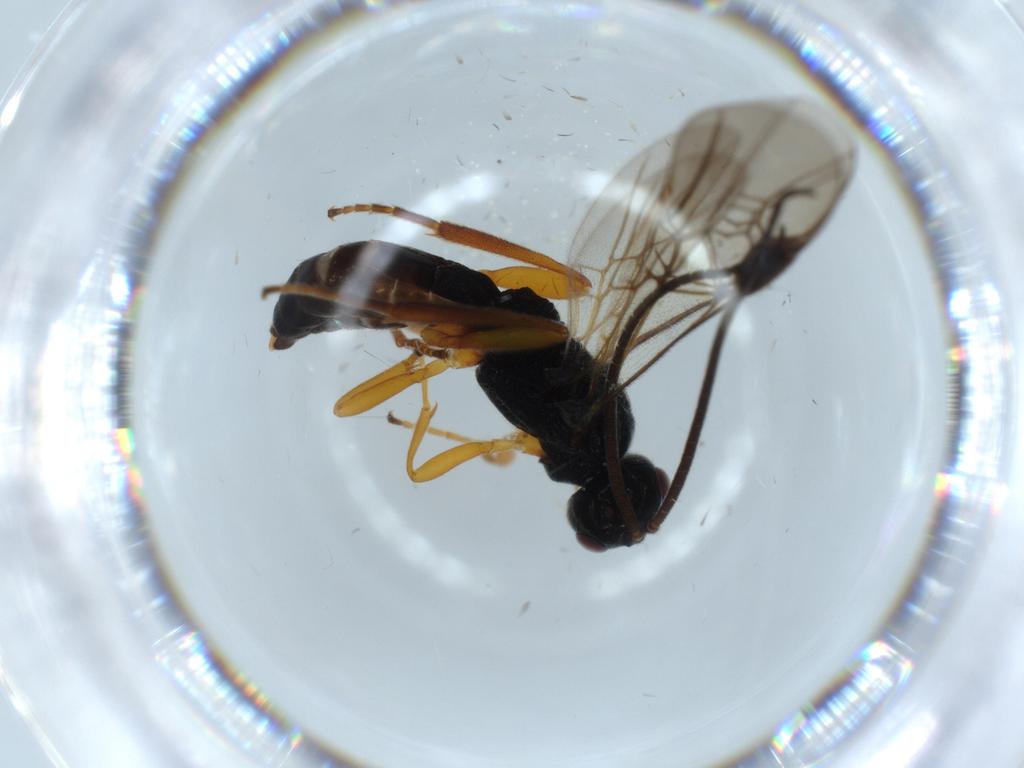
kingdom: Animalia
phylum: Arthropoda
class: Insecta
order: Hymenoptera
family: Braconidae
